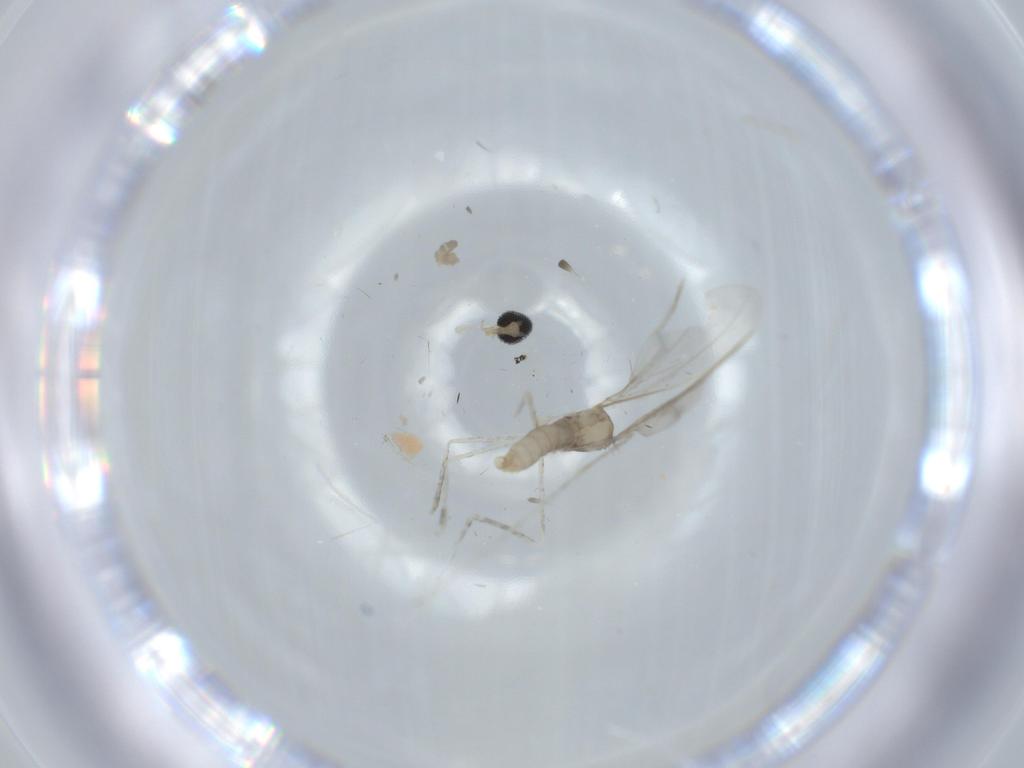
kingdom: Animalia
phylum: Arthropoda
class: Insecta
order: Diptera
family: Cecidomyiidae
